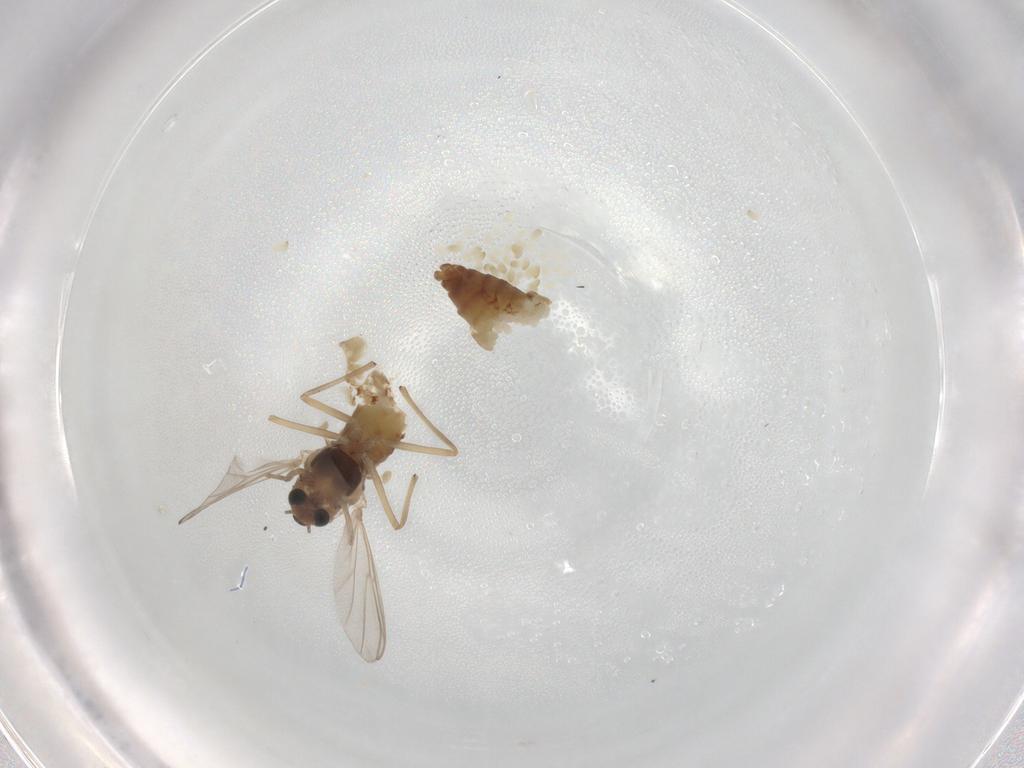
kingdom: Animalia
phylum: Arthropoda
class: Insecta
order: Diptera
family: Chironomidae
